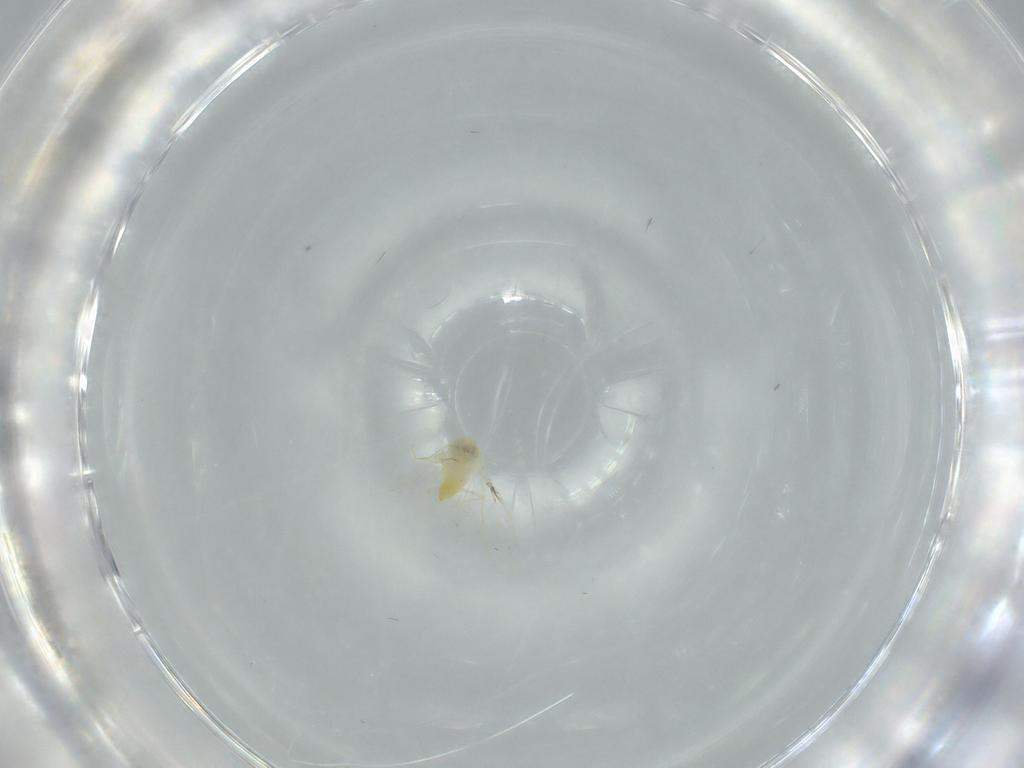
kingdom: Animalia
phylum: Arthropoda
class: Insecta
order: Diptera
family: Cecidomyiidae
